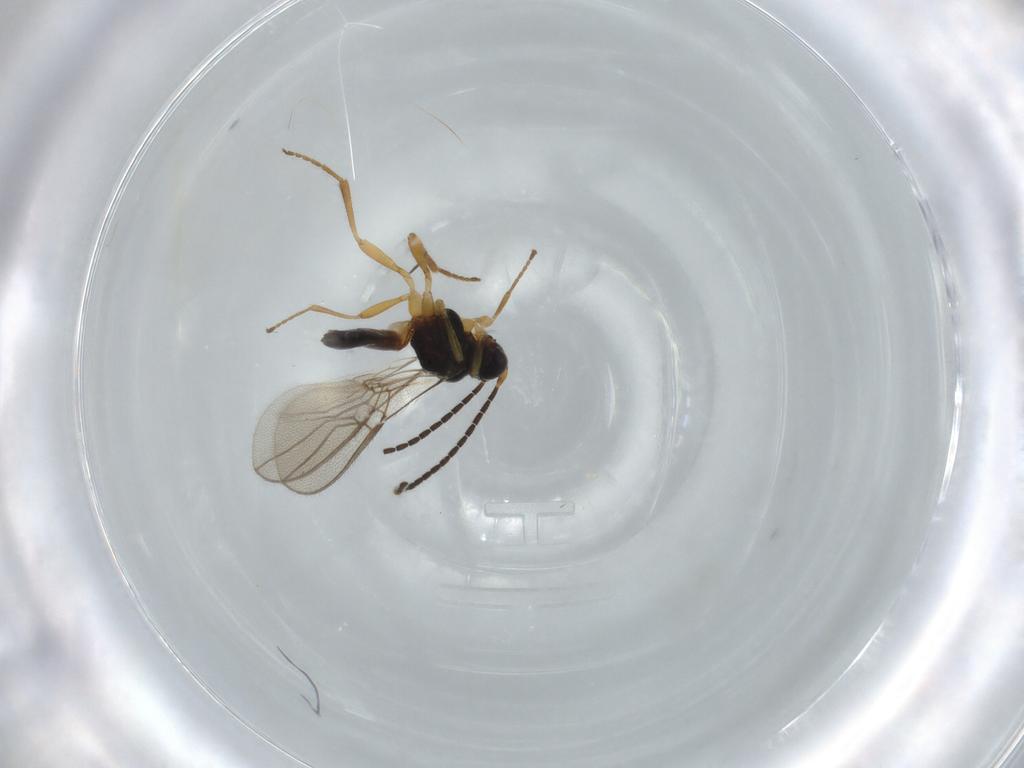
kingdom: Animalia
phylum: Arthropoda
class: Insecta
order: Hymenoptera
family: Braconidae
